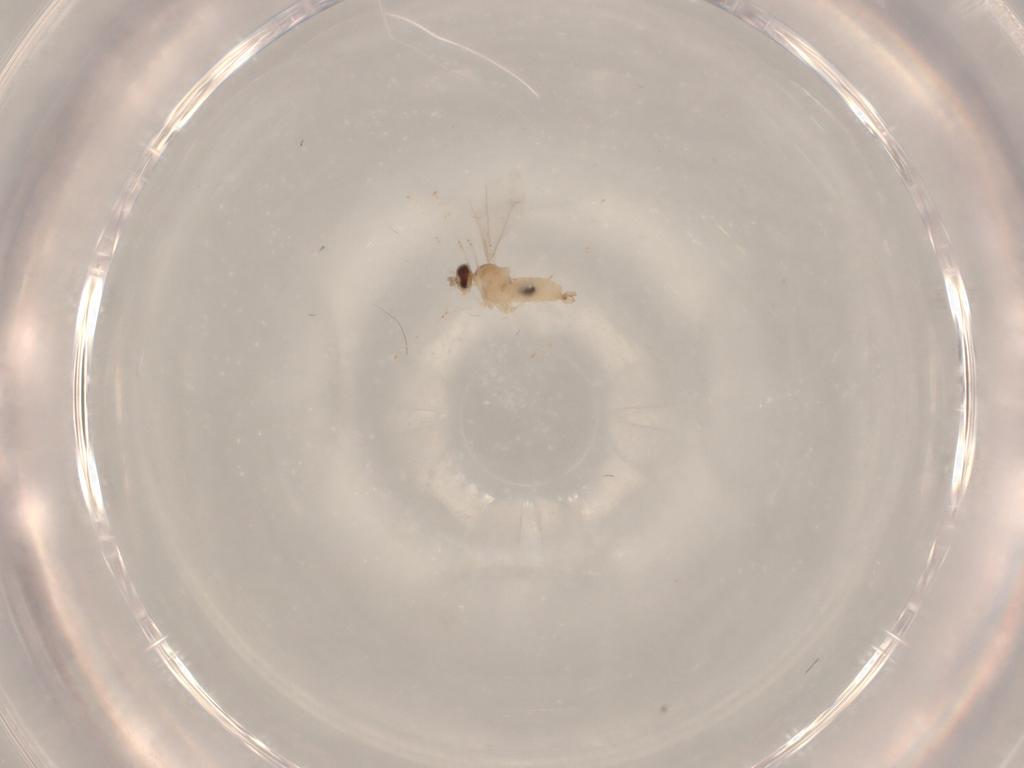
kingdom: Animalia
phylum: Arthropoda
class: Insecta
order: Diptera
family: Cecidomyiidae
